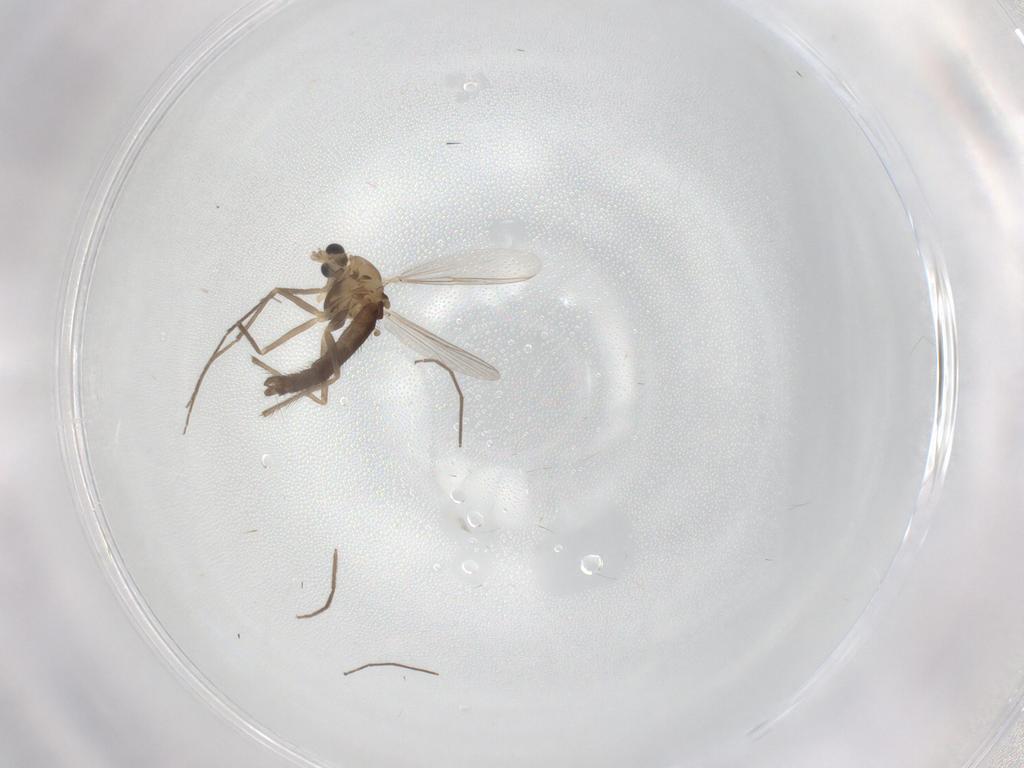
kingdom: Animalia
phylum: Arthropoda
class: Insecta
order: Diptera
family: Chironomidae
